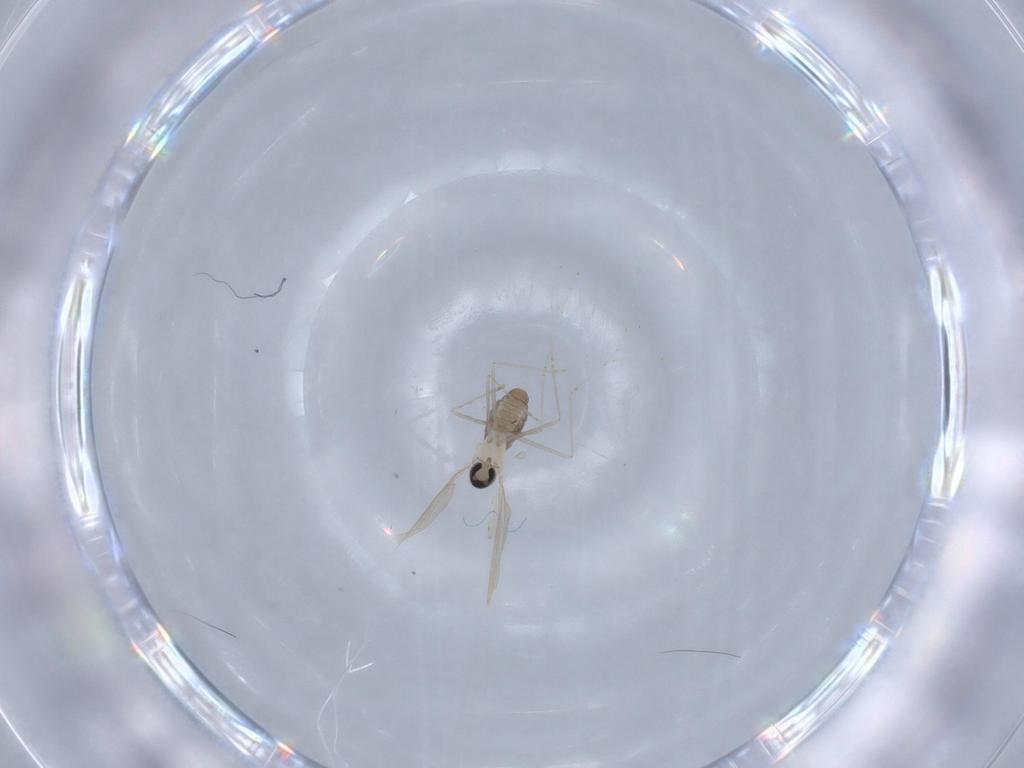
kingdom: Animalia
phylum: Arthropoda
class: Insecta
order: Diptera
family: Cecidomyiidae
